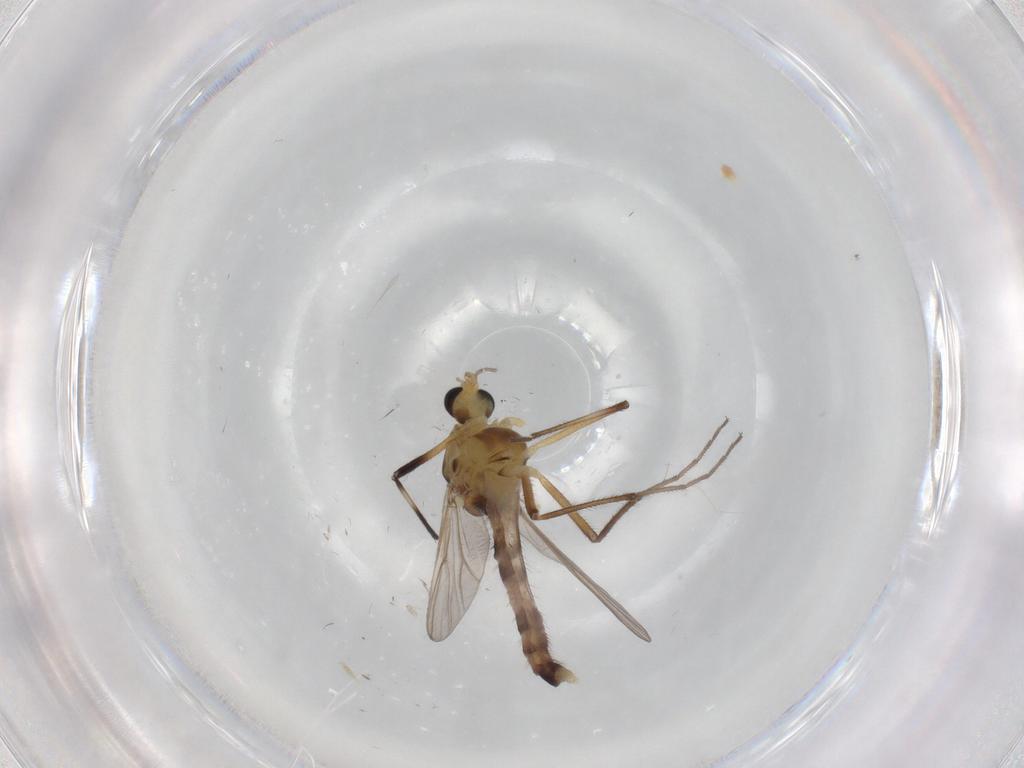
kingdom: Animalia
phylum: Arthropoda
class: Insecta
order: Diptera
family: Chironomidae
